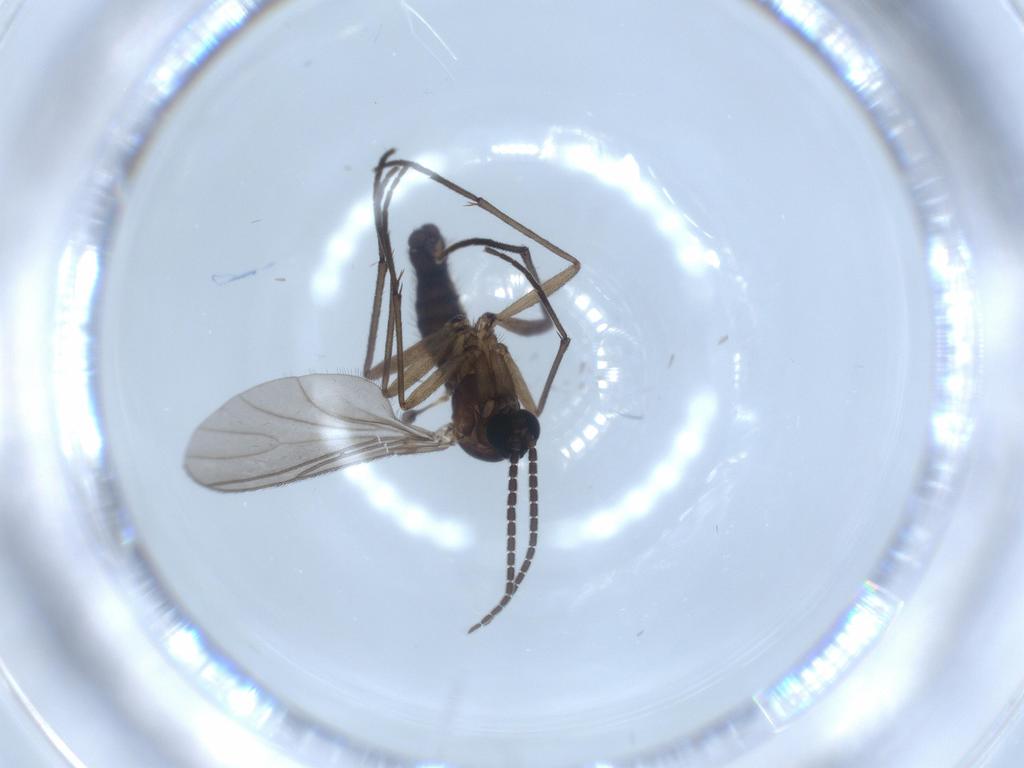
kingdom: Animalia
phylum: Arthropoda
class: Insecta
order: Diptera
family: Sciaridae
